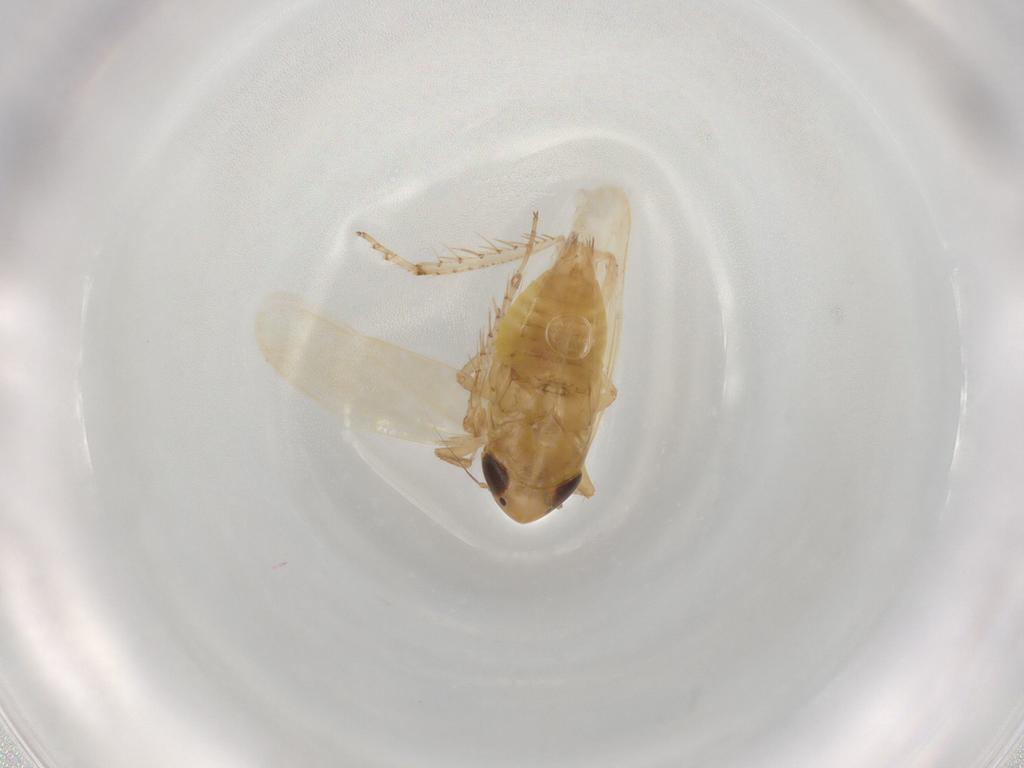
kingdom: Animalia
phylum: Arthropoda
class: Insecta
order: Hemiptera
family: Cicadellidae
